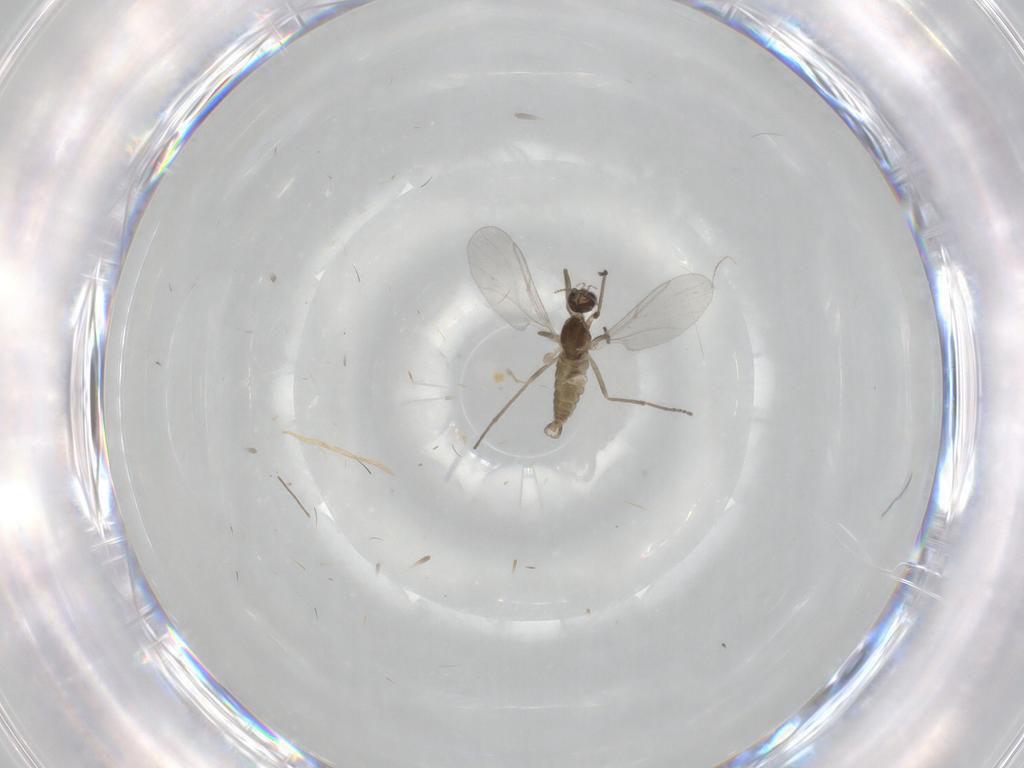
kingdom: Animalia
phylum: Arthropoda
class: Insecta
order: Diptera
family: Cecidomyiidae
